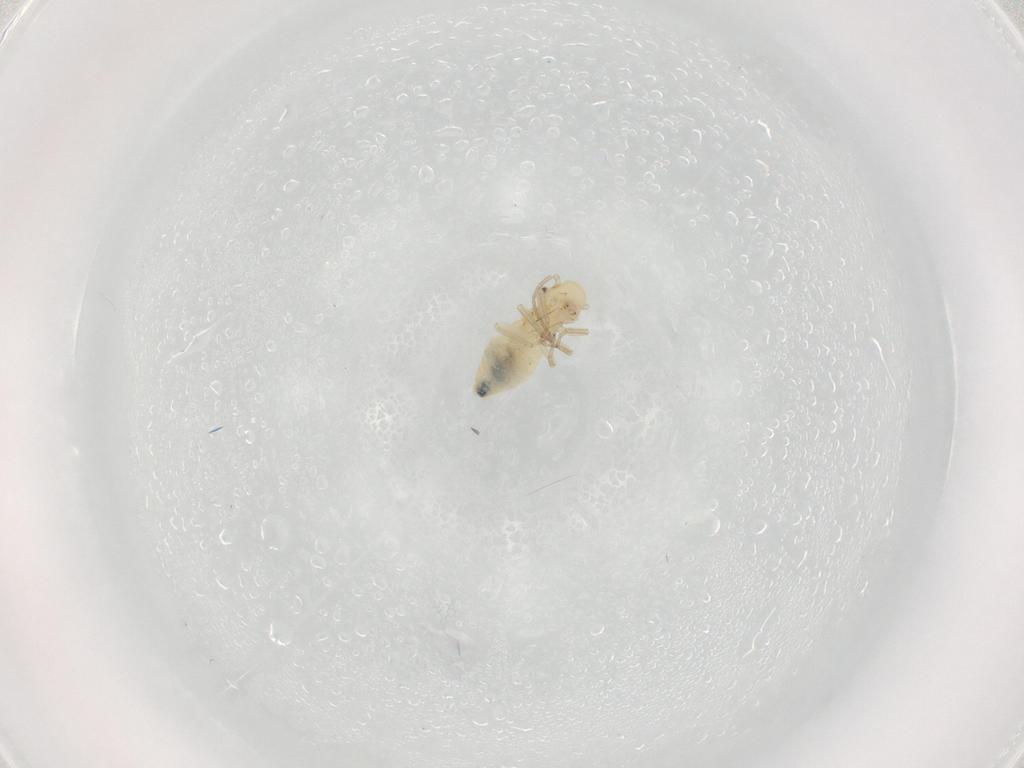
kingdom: Animalia
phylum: Arthropoda
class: Insecta
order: Psocodea
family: Caeciliusidae
